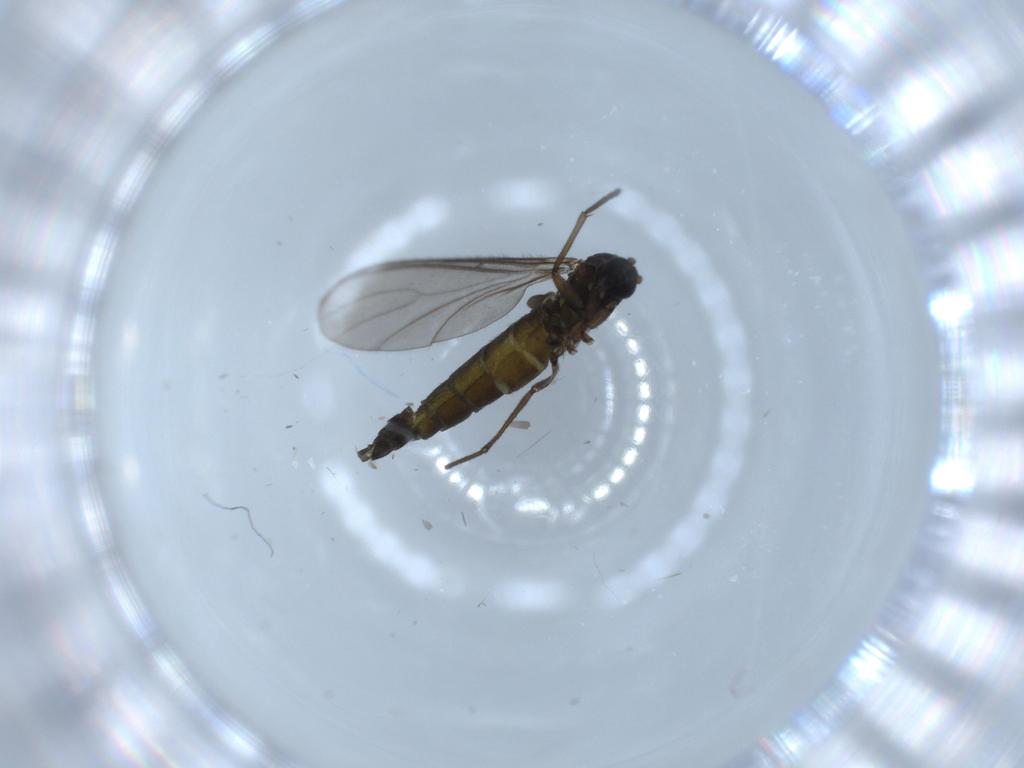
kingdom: Animalia
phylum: Arthropoda
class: Insecta
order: Diptera
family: Sciaridae
